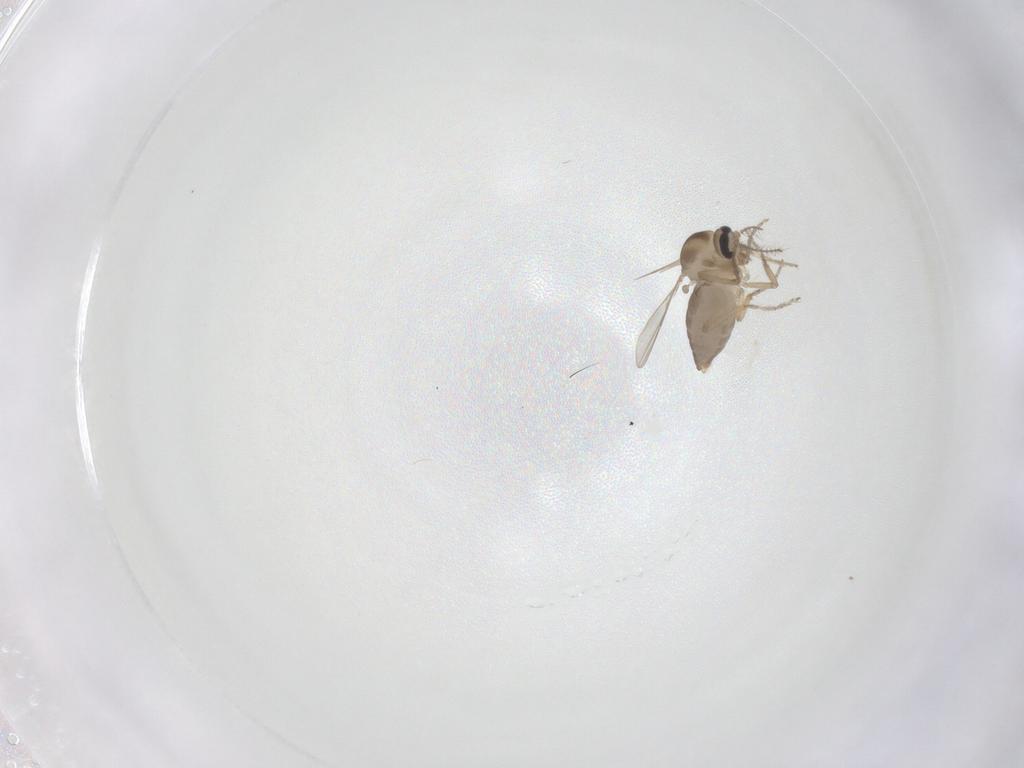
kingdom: Animalia
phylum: Arthropoda
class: Insecta
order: Diptera
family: Ceratopogonidae
